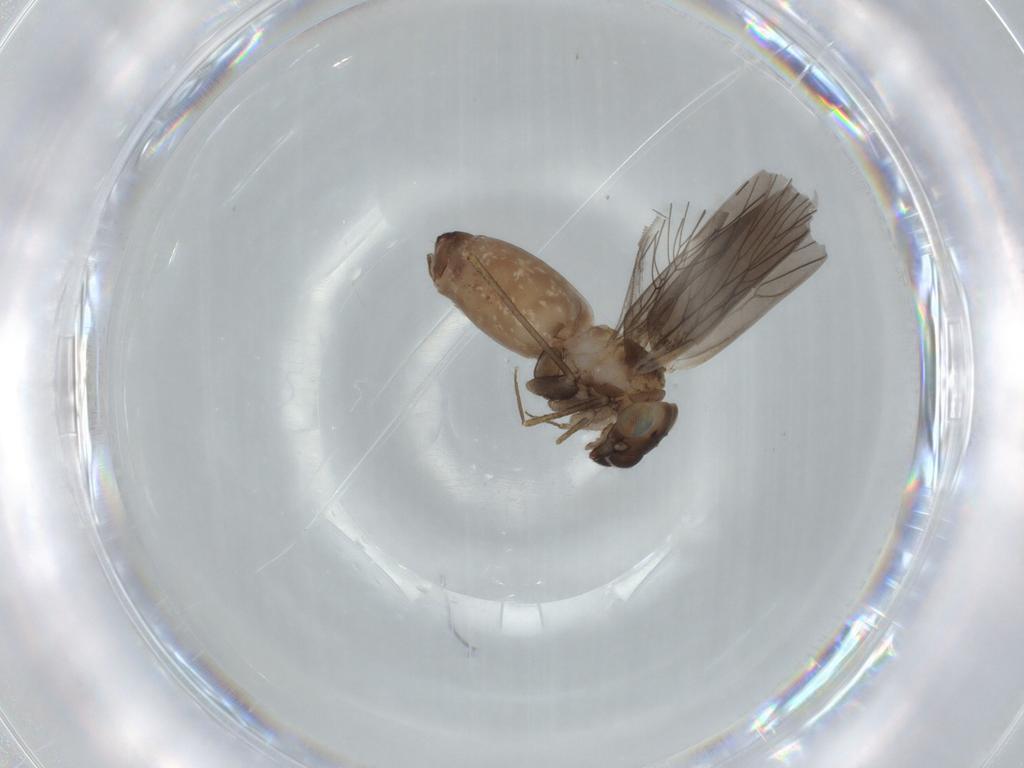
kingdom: Animalia
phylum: Arthropoda
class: Insecta
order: Psocodea
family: Lepidopsocidae
